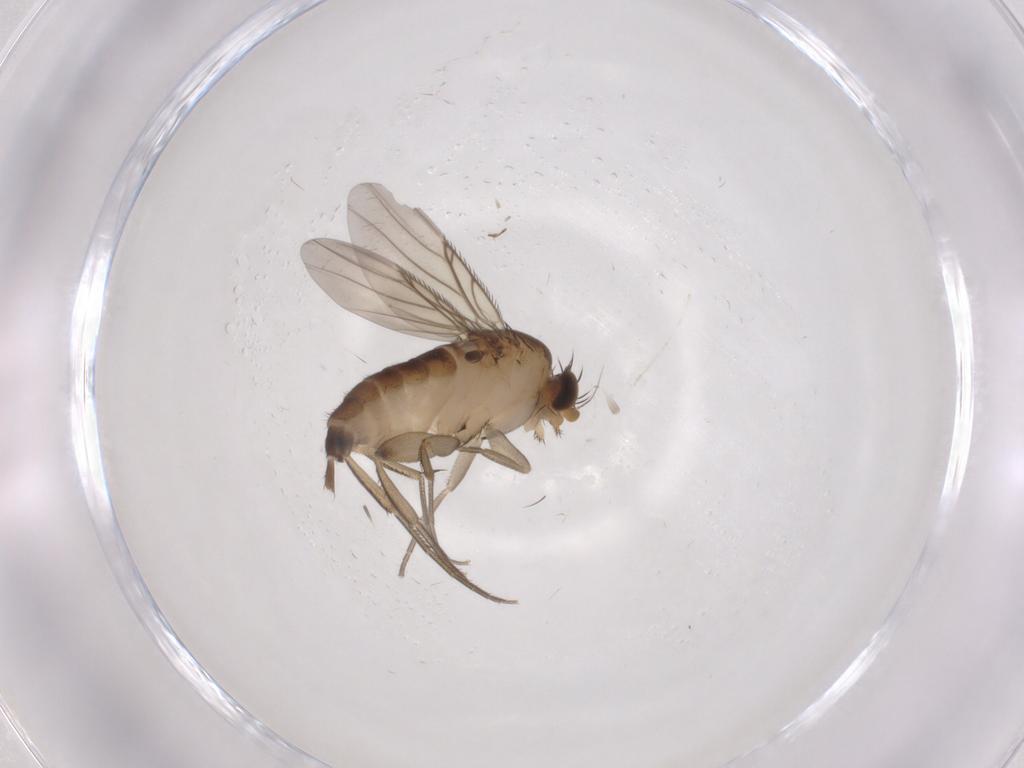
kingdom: Animalia
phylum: Arthropoda
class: Insecta
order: Diptera
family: Phoridae
